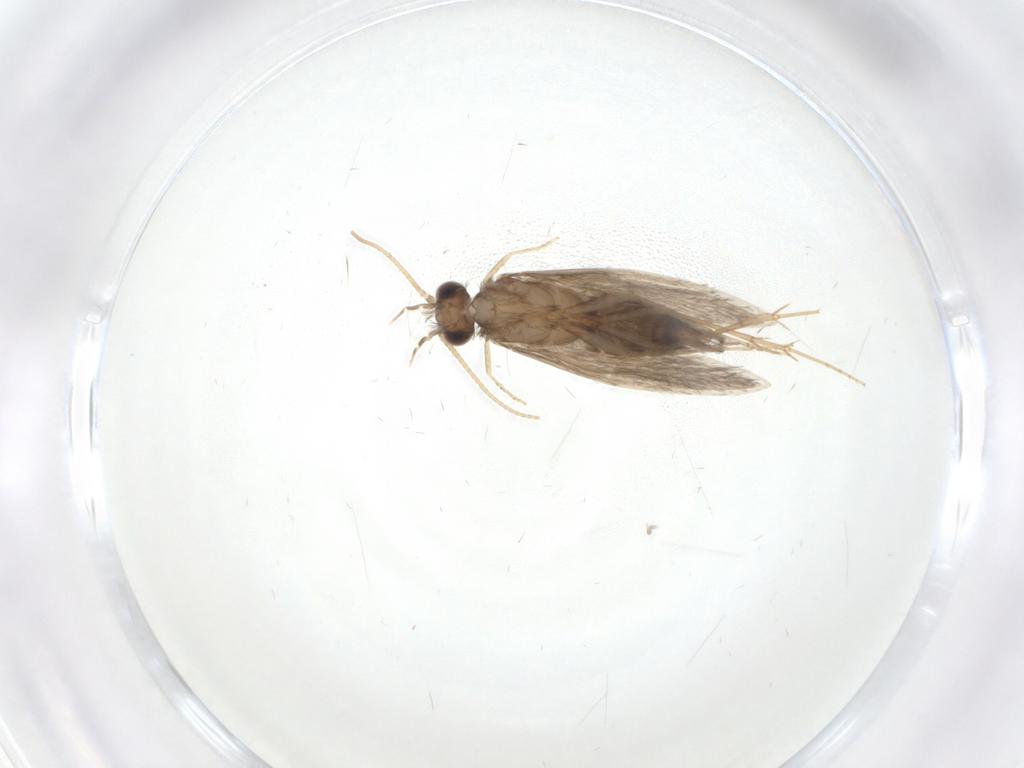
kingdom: Animalia
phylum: Arthropoda
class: Insecta
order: Trichoptera
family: Hydroptilidae
